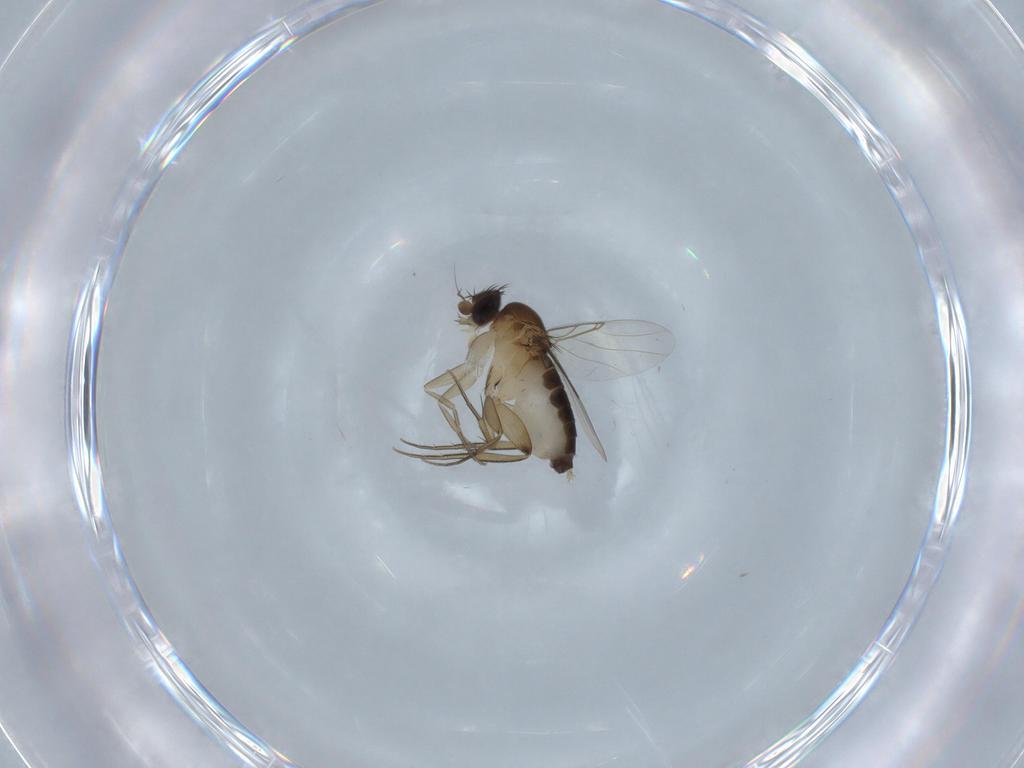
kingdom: Animalia
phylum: Arthropoda
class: Insecta
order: Diptera
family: Phoridae
